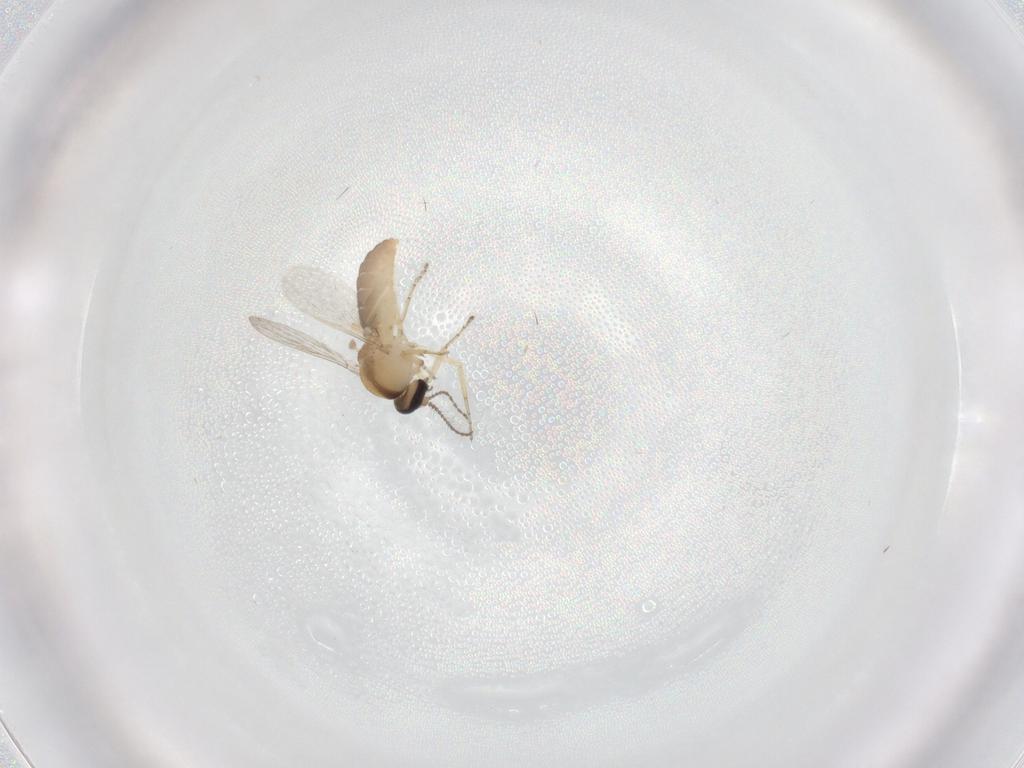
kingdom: Animalia
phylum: Arthropoda
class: Insecta
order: Diptera
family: Ceratopogonidae
